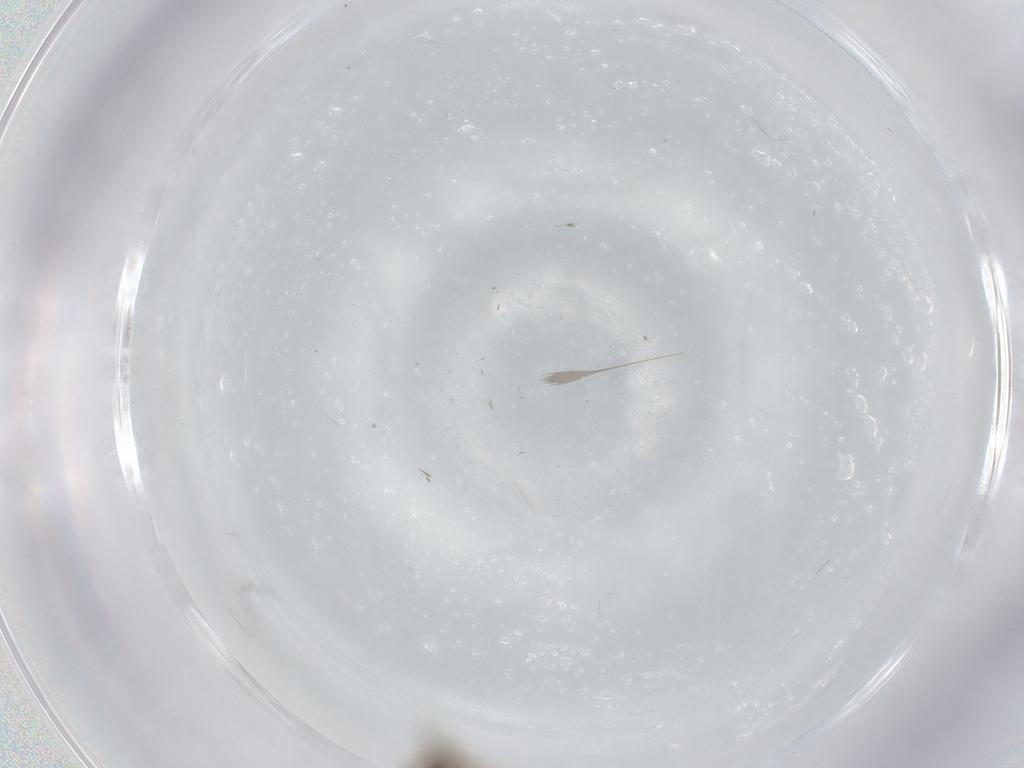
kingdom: Animalia
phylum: Arthropoda
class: Insecta
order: Diptera
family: Chironomidae
